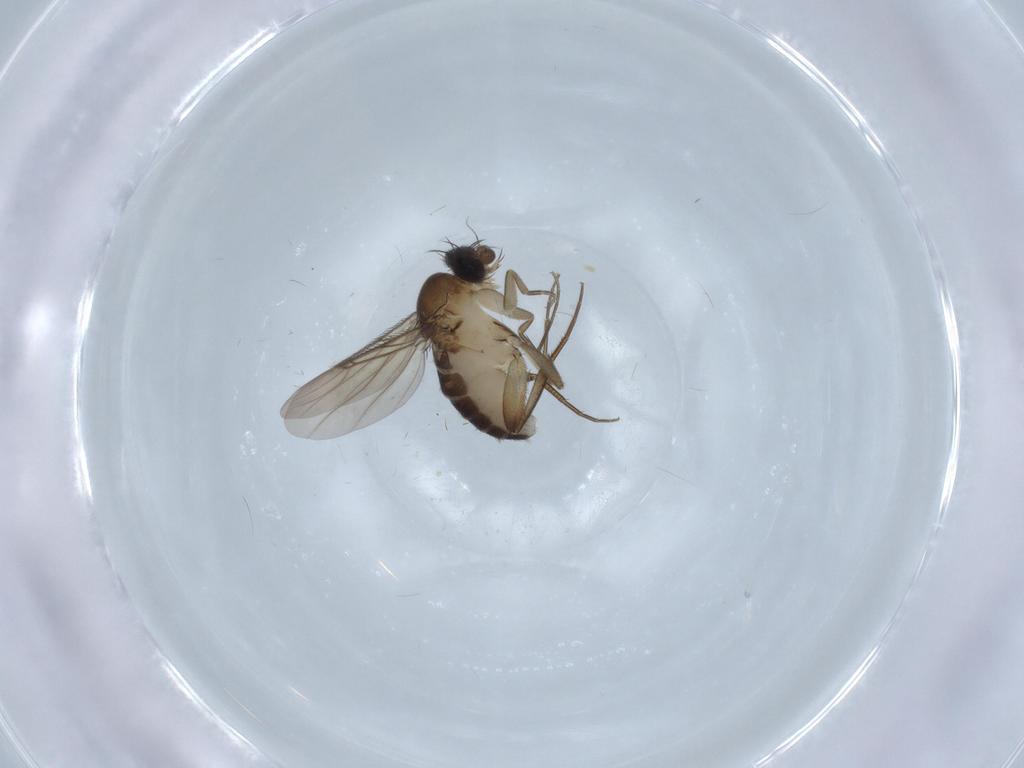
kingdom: Animalia
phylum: Arthropoda
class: Insecta
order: Diptera
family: Phoridae
